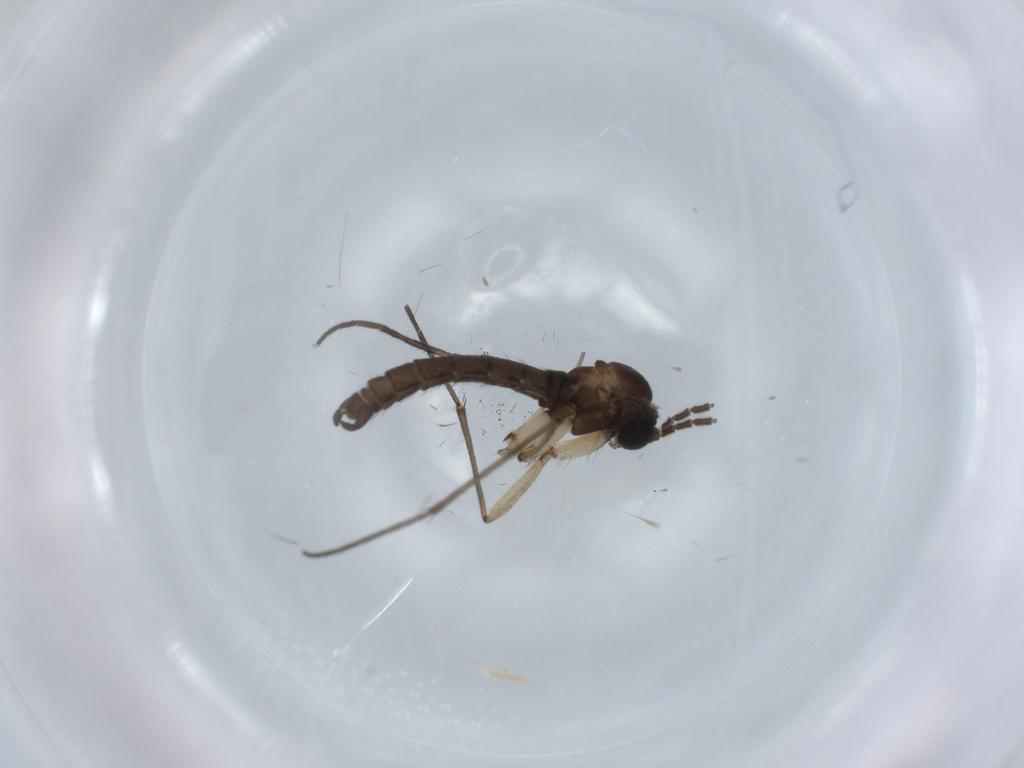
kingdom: Animalia
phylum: Arthropoda
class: Insecta
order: Diptera
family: Sciaridae
